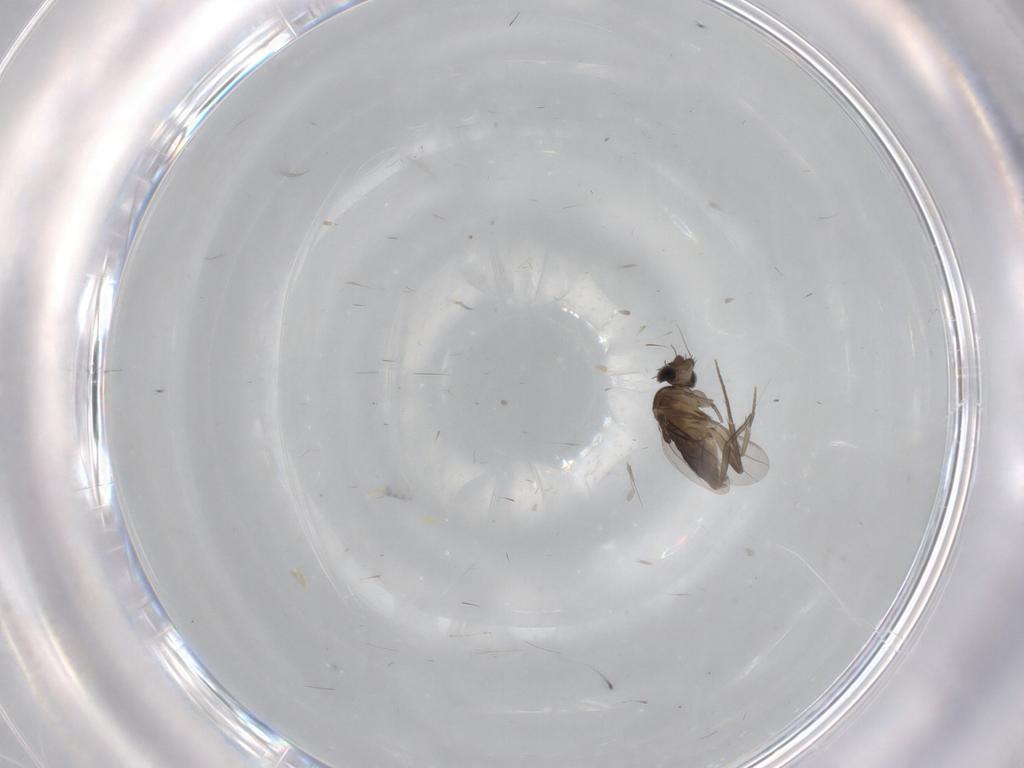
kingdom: Animalia
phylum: Arthropoda
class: Insecta
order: Diptera
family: Phoridae
